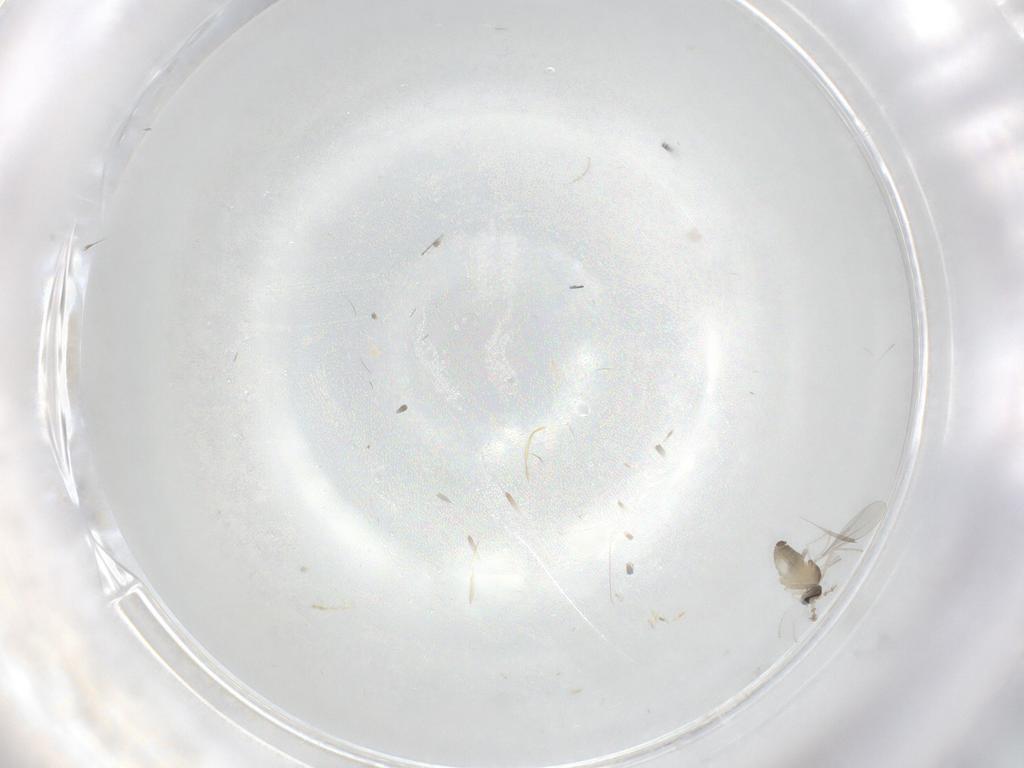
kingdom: Animalia
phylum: Arthropoda
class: Insecta
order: Diptera
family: Cecidomyiidae
